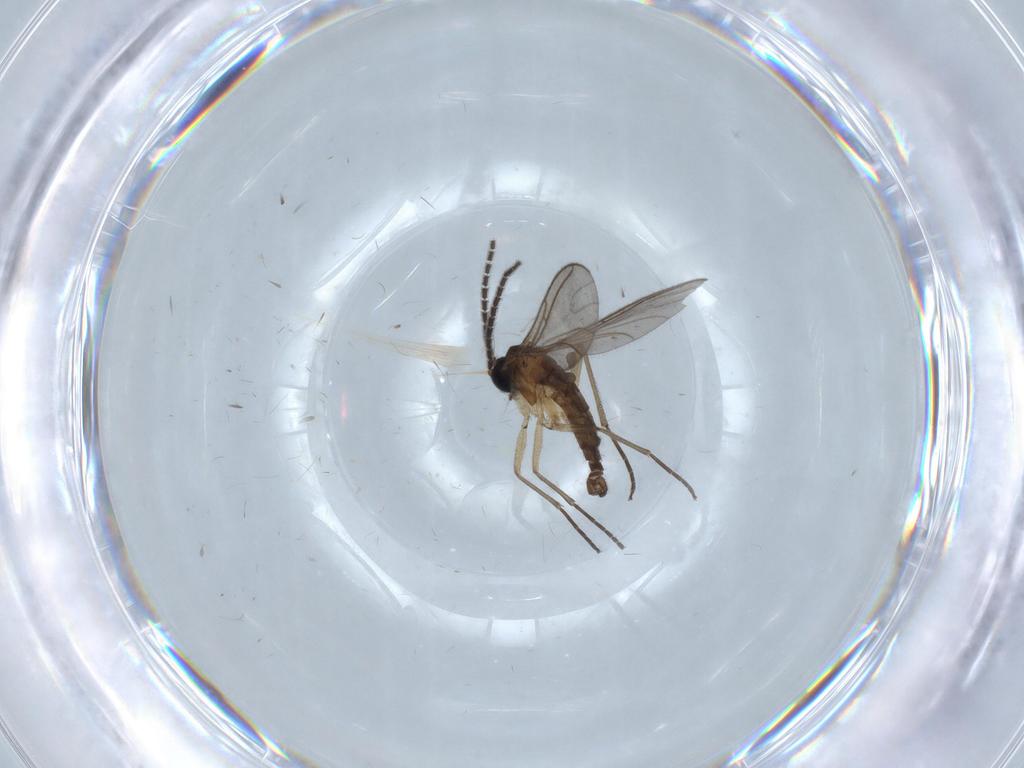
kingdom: Animalia
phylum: Arthropoda
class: Insecta
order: Diptera
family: Sciaridae
